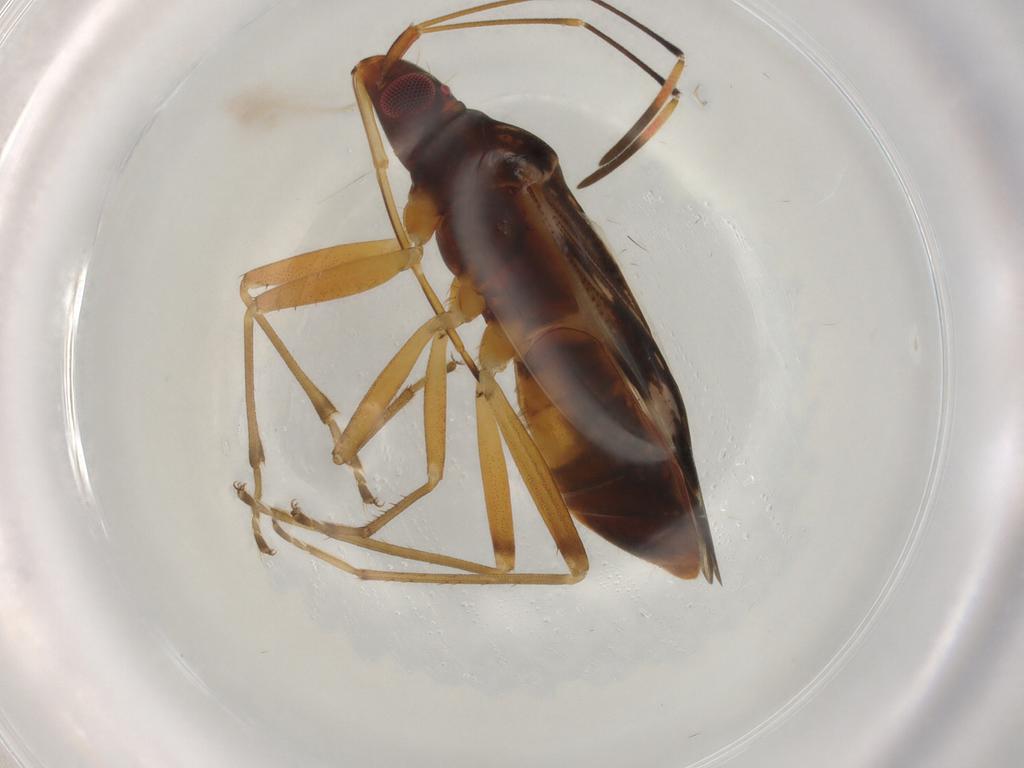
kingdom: Animalia
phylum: Arthropoda
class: Insecta
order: Hemiptera
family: Rhyparochromidae
